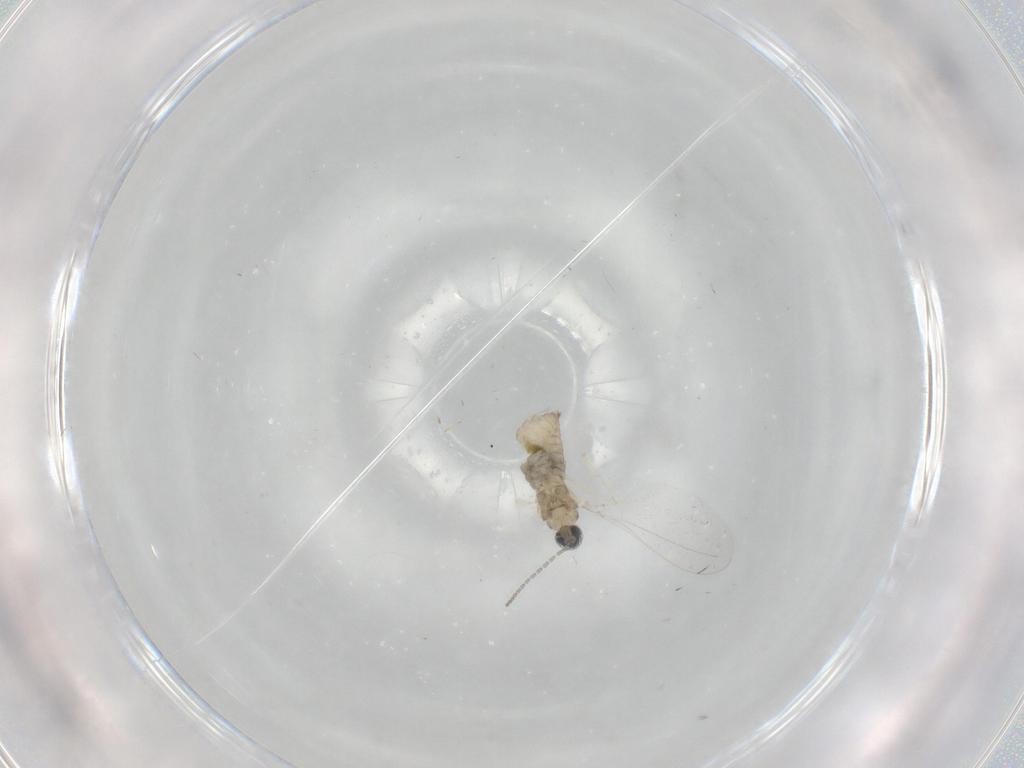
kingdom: Animalia
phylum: Arthropoda
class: Insecta
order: Diptera
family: Cecidomyiidae
